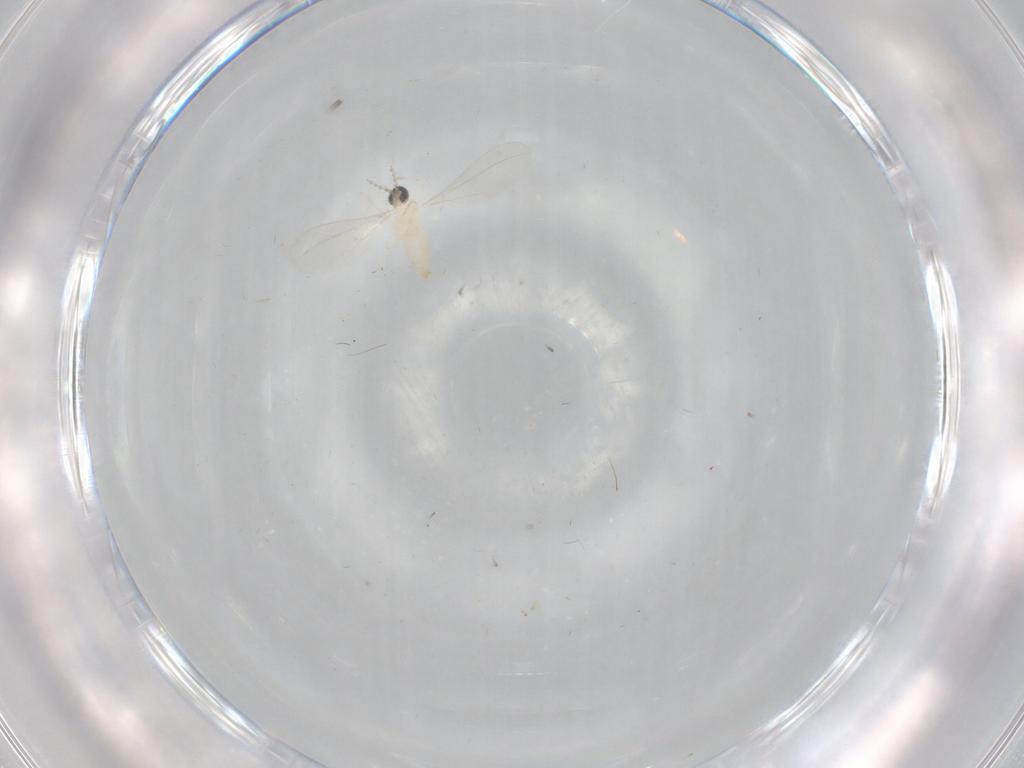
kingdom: Animalia
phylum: Arthropoda
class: Insecta
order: Diptera
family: Cecidomyiidae
